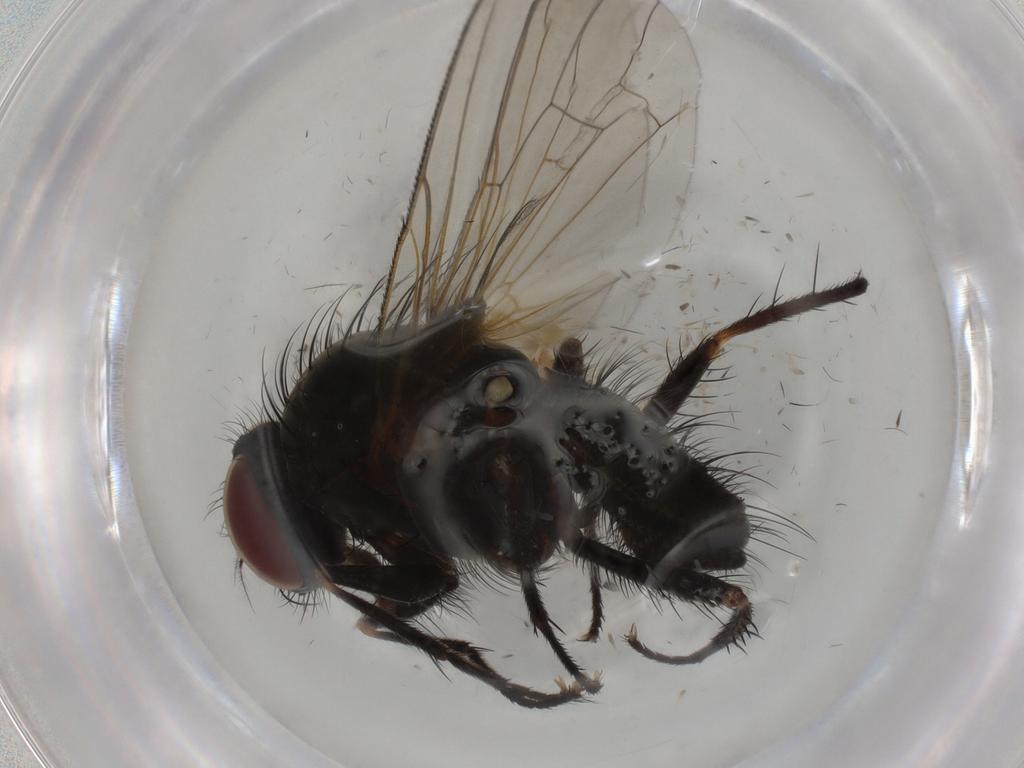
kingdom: Animalia
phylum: Arthropoda
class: Insecta
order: Diptera
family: Anthomyiidae
